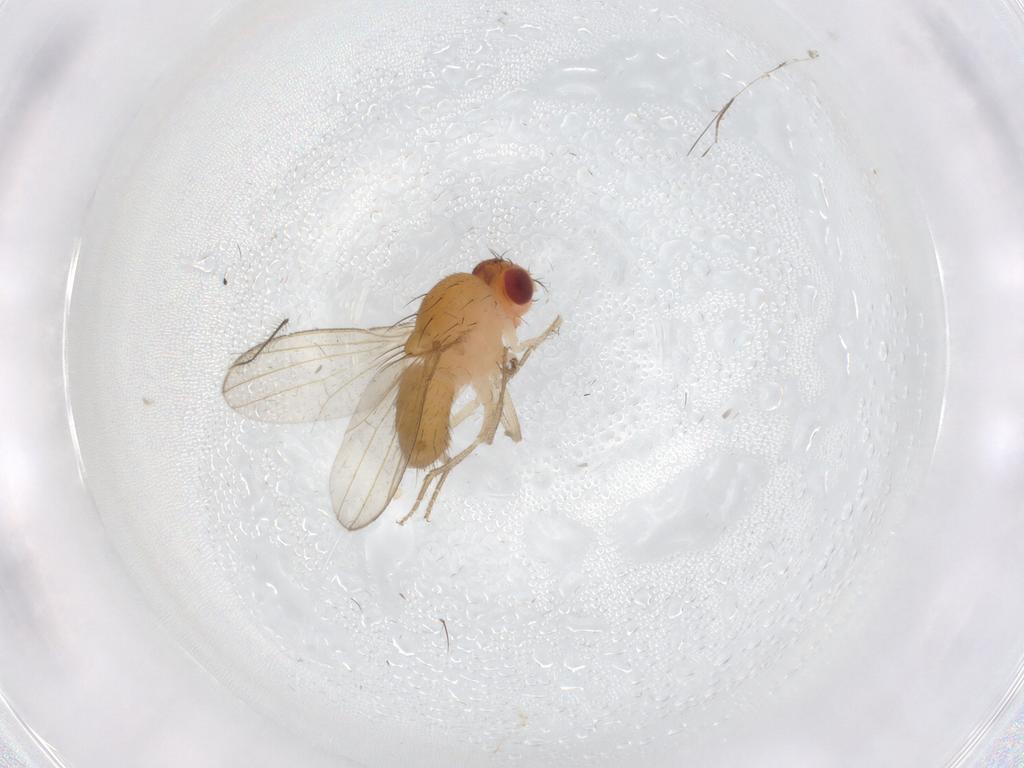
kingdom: Animalia
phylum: Arthropoda
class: Insecta
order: Diptera
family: Drosophilidae
